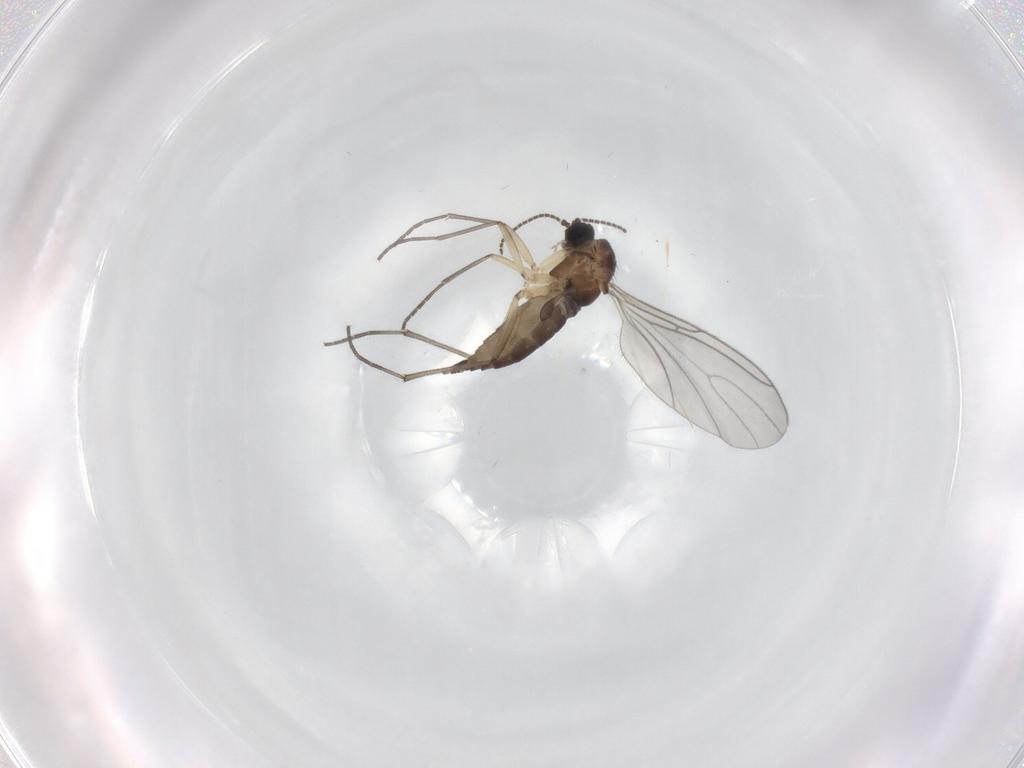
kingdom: Animalia
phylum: Arthropoda
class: Insecta
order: Diptera
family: Sciaridae
